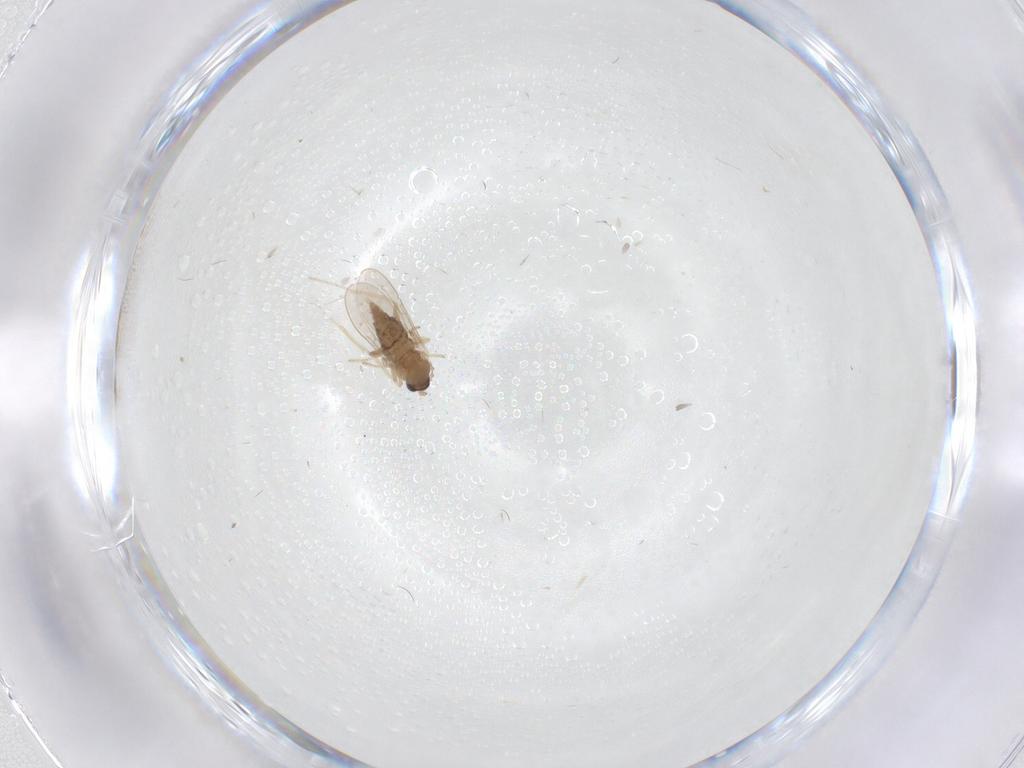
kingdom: Animalia
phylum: Arthropoda
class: Insecta
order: Diptera
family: Cecidomyiidae
